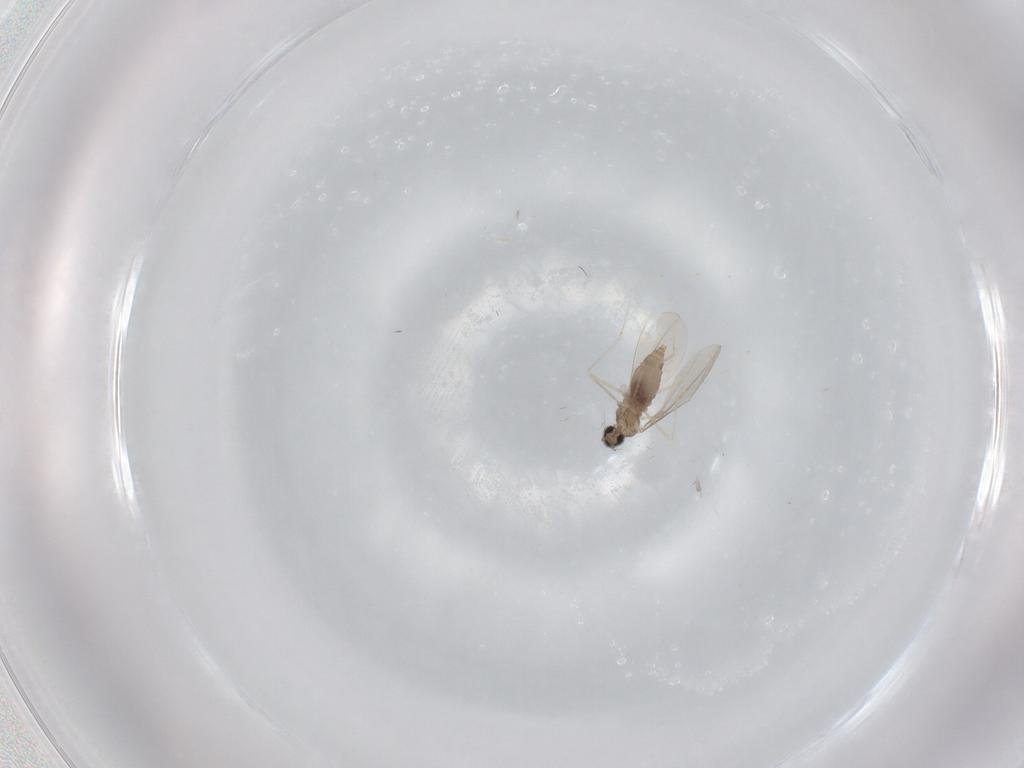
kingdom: Animalia
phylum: Arthropoda
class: Insecta
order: Diptera
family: Cecidomyiidae
